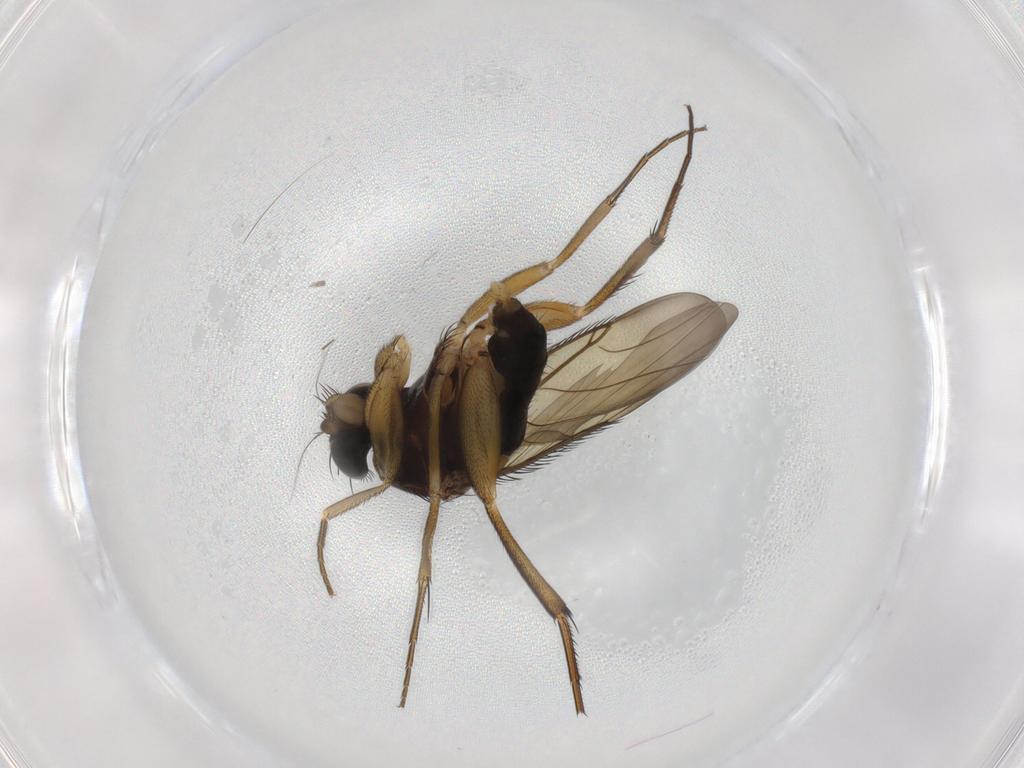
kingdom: Animalia
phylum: Arthropoda
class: Insecta
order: Diptera
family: Phoridae
